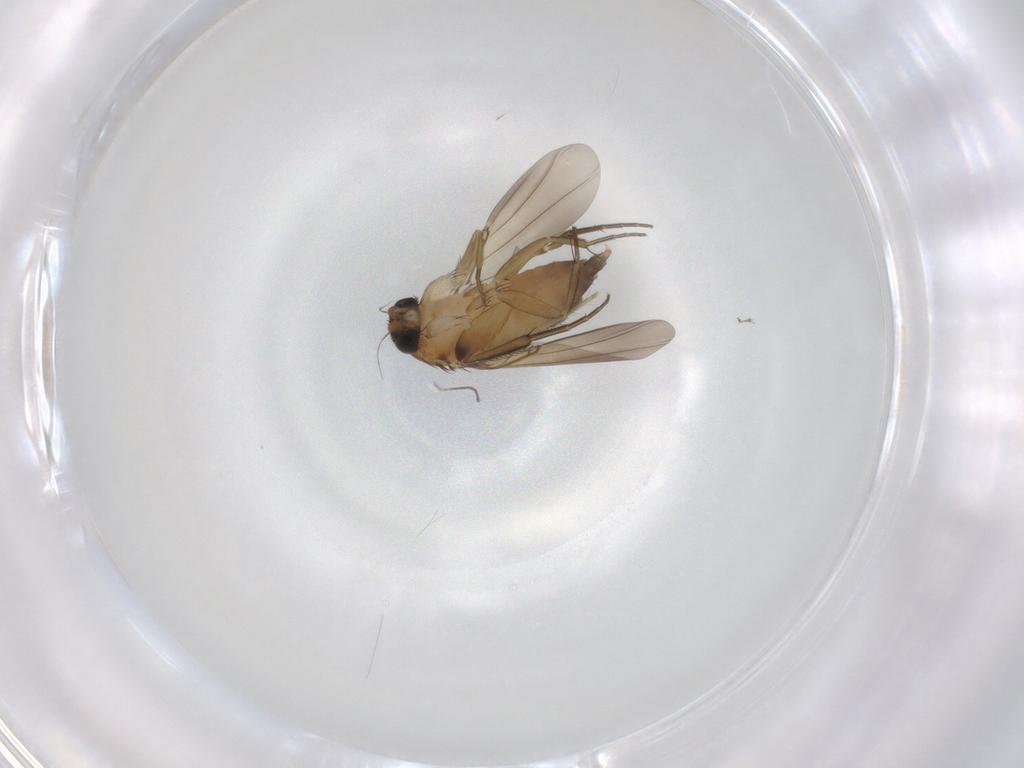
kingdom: Animalia
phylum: Arthropoda
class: Insecta
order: Diptera
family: Phoridae
